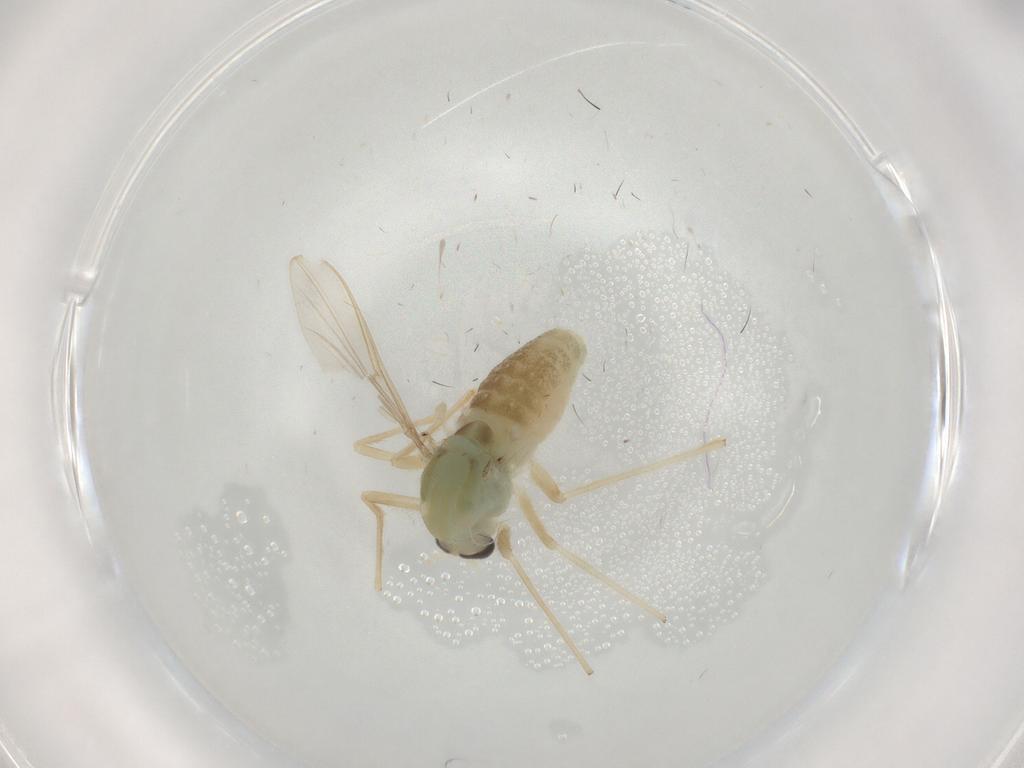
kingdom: Animalia
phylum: Arthropoda
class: Insecta
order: Diptera
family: Chironomidae
